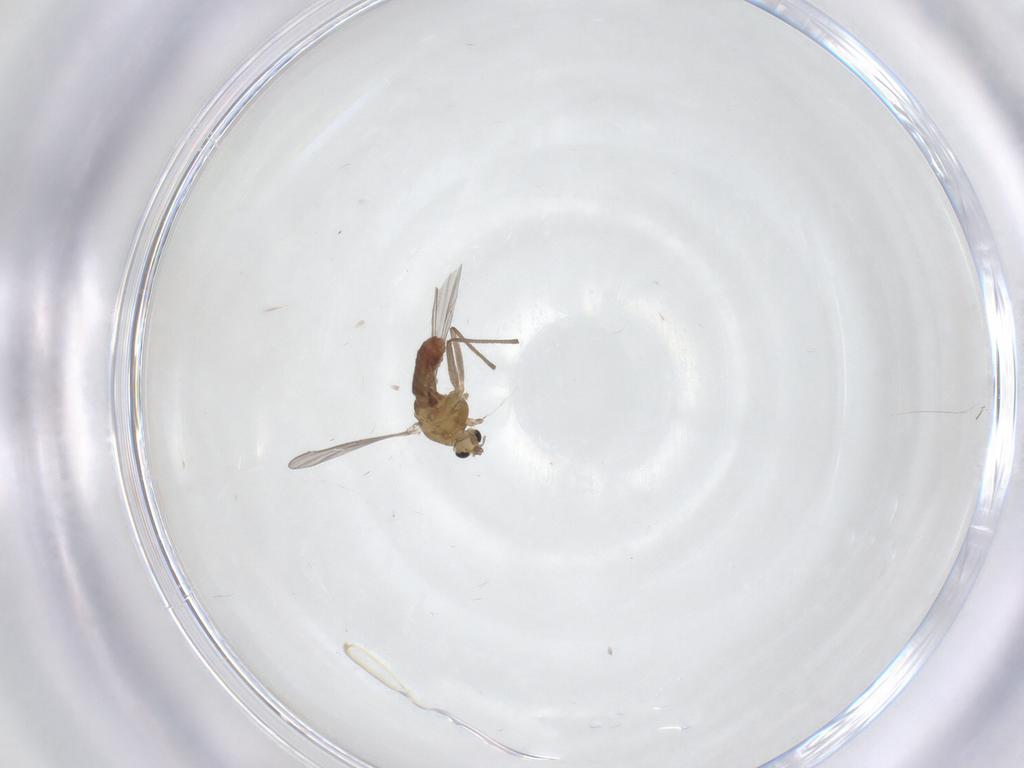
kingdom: Animalia
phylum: Arthropoda
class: Insecta
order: Diptera
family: Chironomidae
